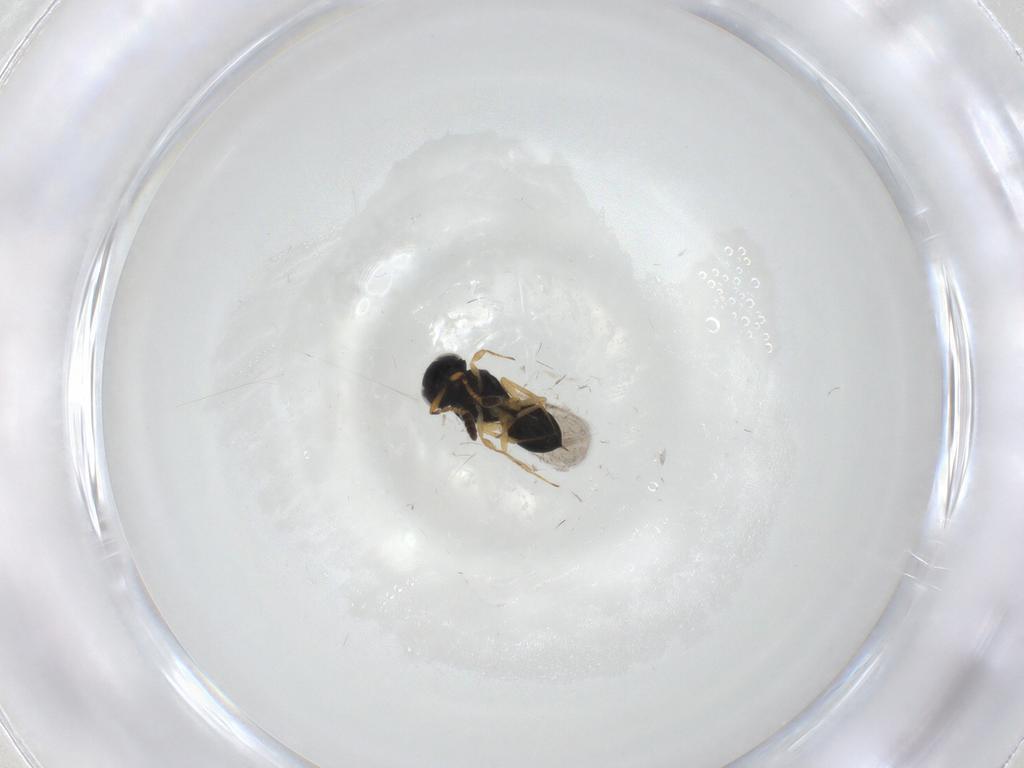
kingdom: Animalia
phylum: Arthropoda
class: Insecta
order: Hymenoptera
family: Scelionidae
